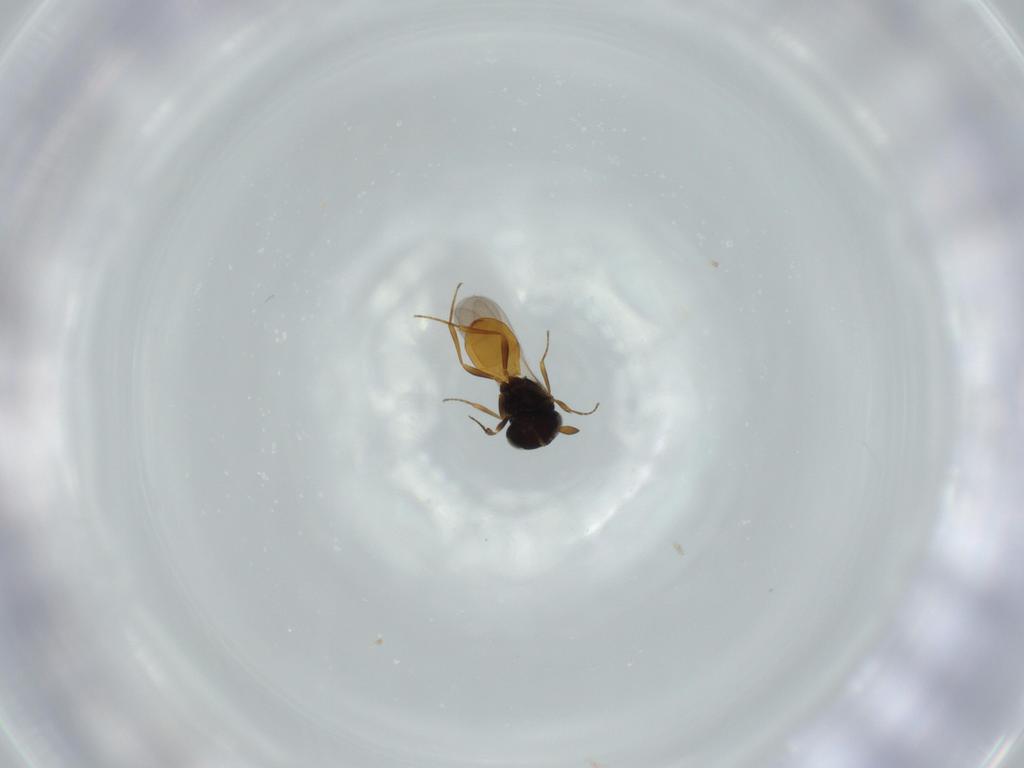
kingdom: Animalia
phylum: Arthropoda
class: Insecta
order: Hymenoptera
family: Scelionidae
